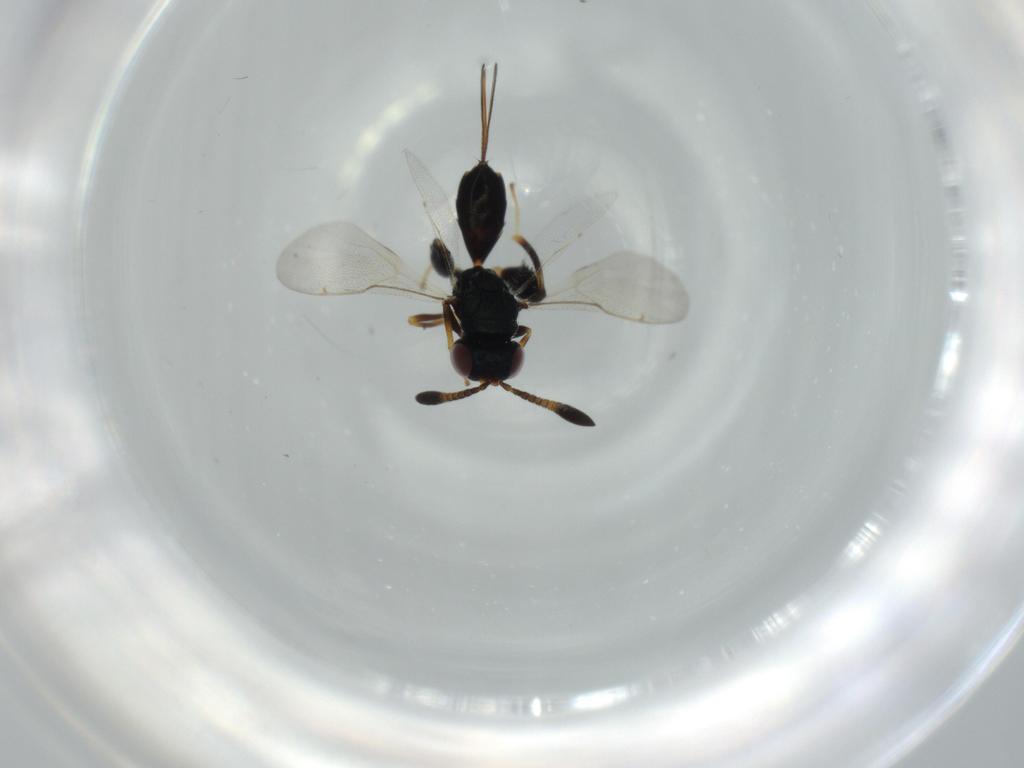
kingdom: Animalia
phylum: Arthropoda
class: Insecta
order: Hymenoptera
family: Torymidae
